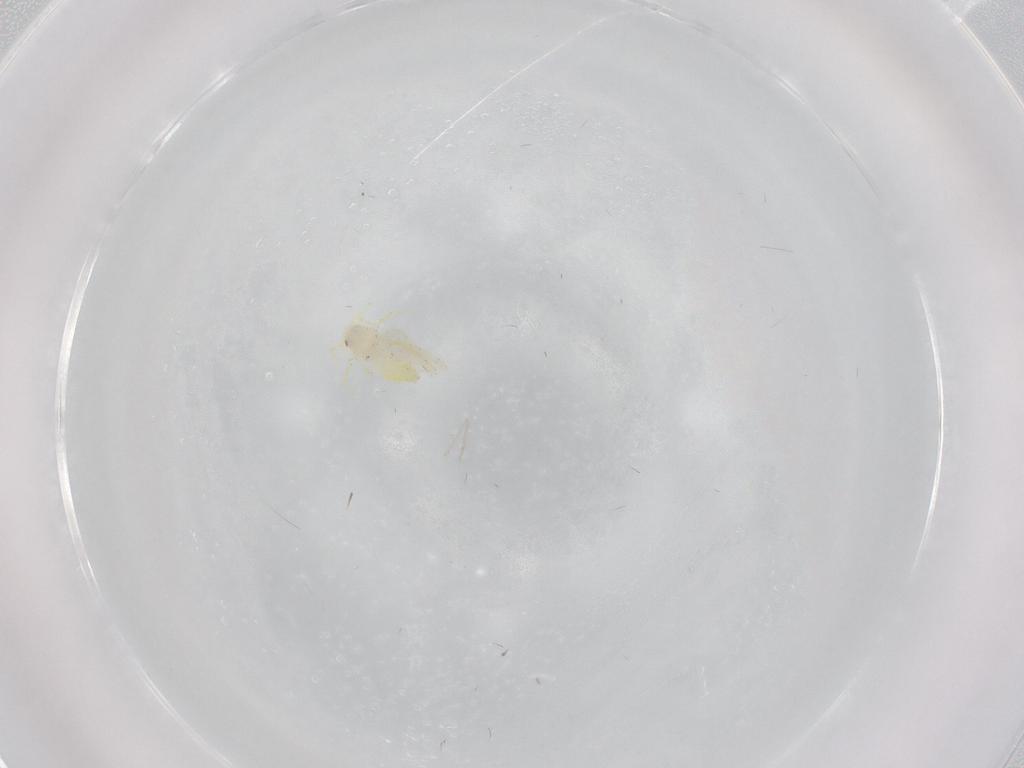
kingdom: Animalia
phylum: Arthropoda
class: Insecta
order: Hemiptera
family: Aleyrodidae
